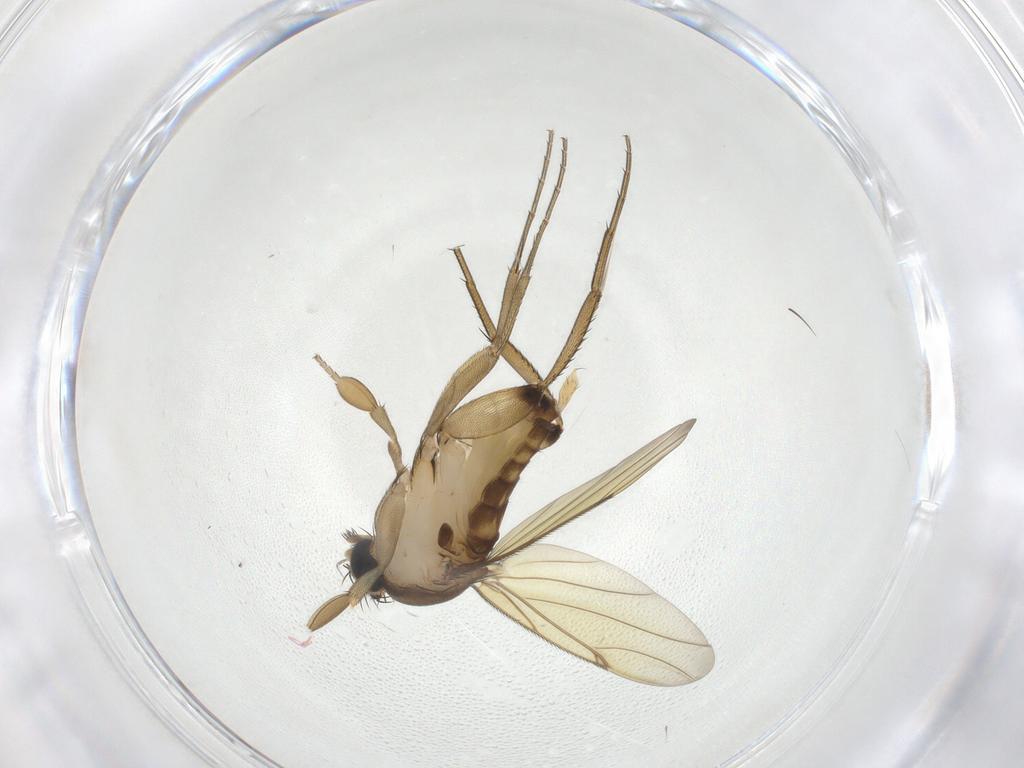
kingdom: Animalia
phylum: Arthropoda
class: Insecta
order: Diptera
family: Phoridae
